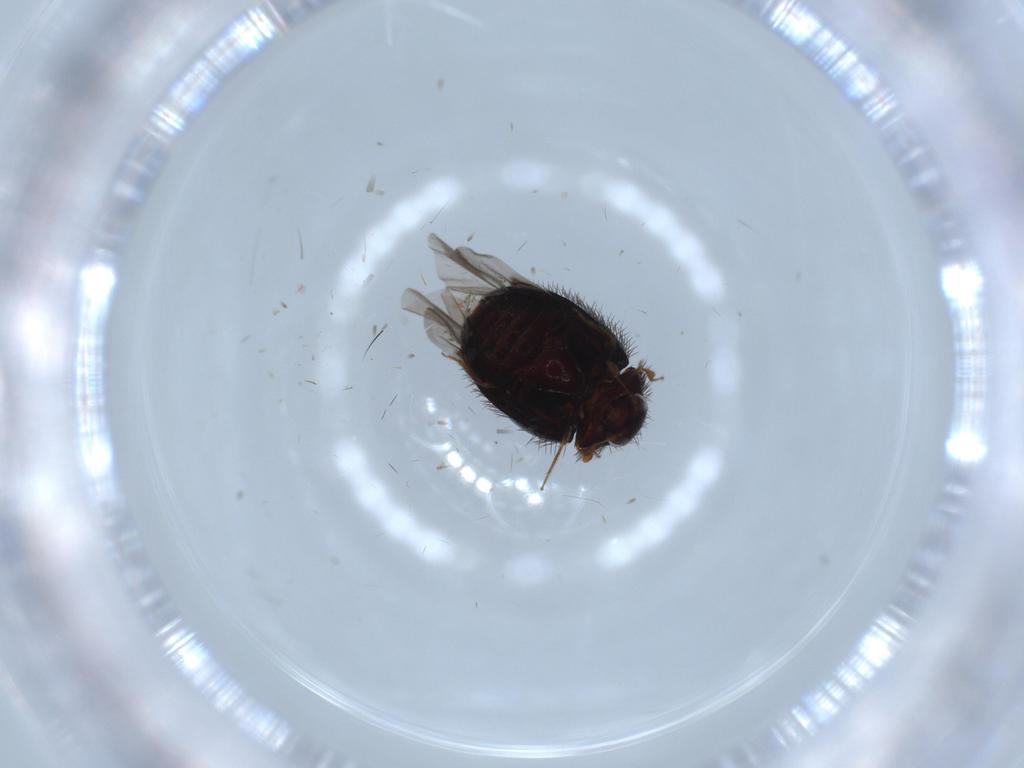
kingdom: Animalia
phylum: Arthropoda
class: Insecta
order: Coleoptera
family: Limnichidae
